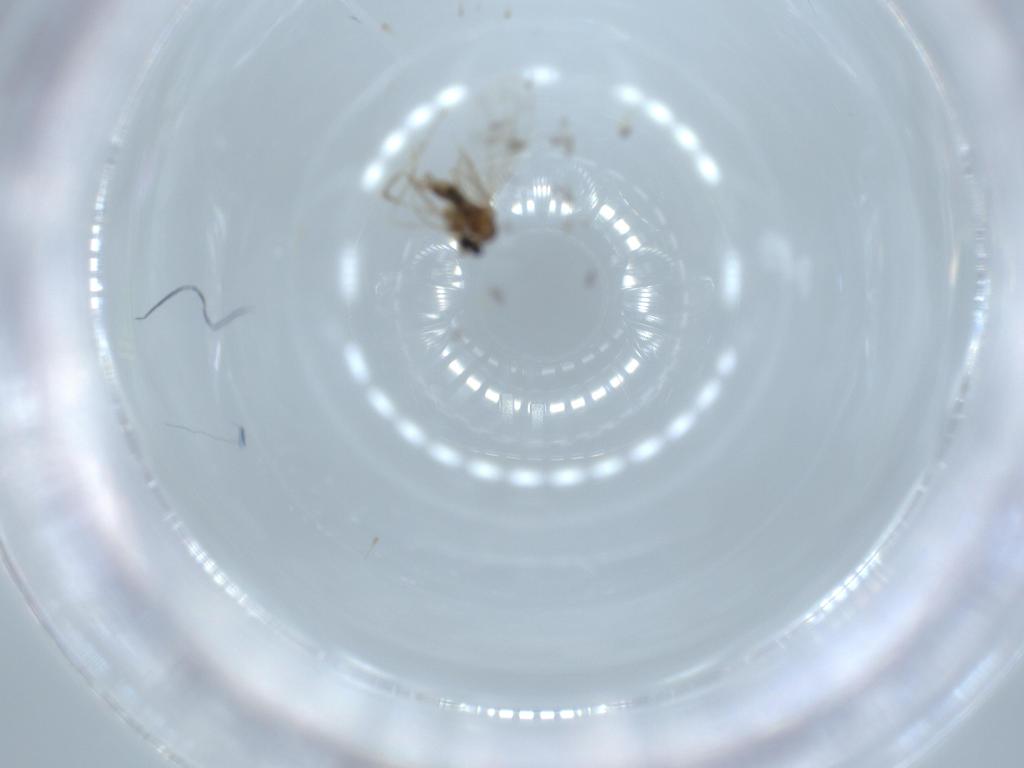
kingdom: Animalia
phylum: Arthropoda
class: Insecta
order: Diptera
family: Cecidomyiidae
